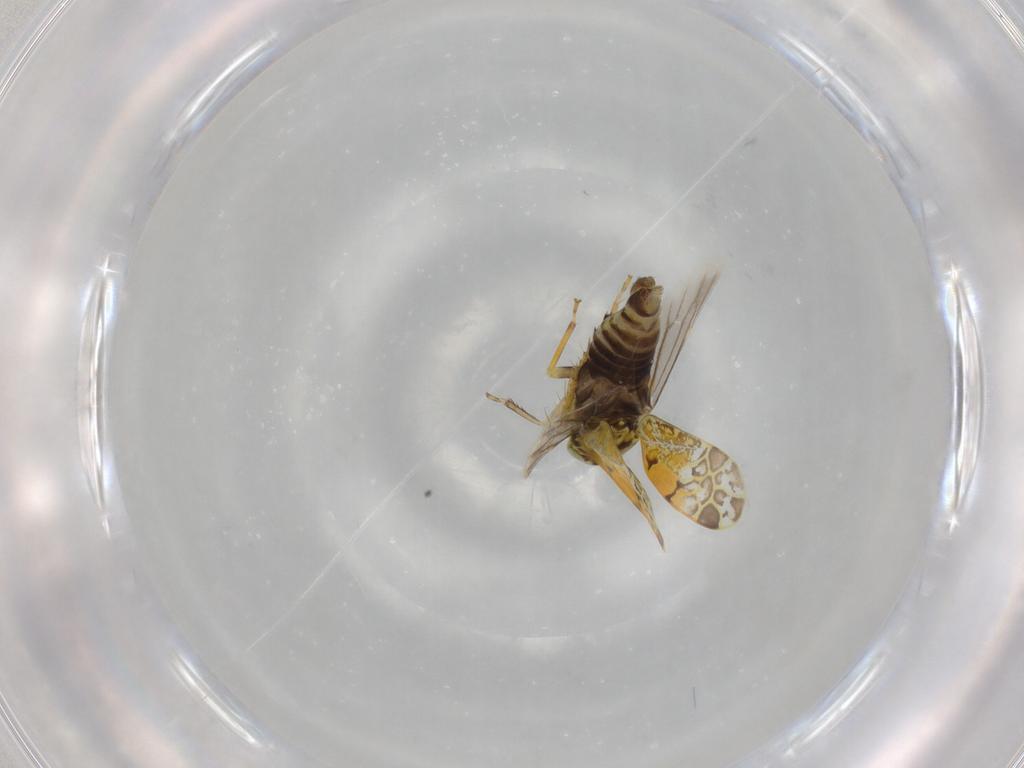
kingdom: Animalia
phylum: Arthropoda
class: Insecta
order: Hemiptera
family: Cicadellidae
